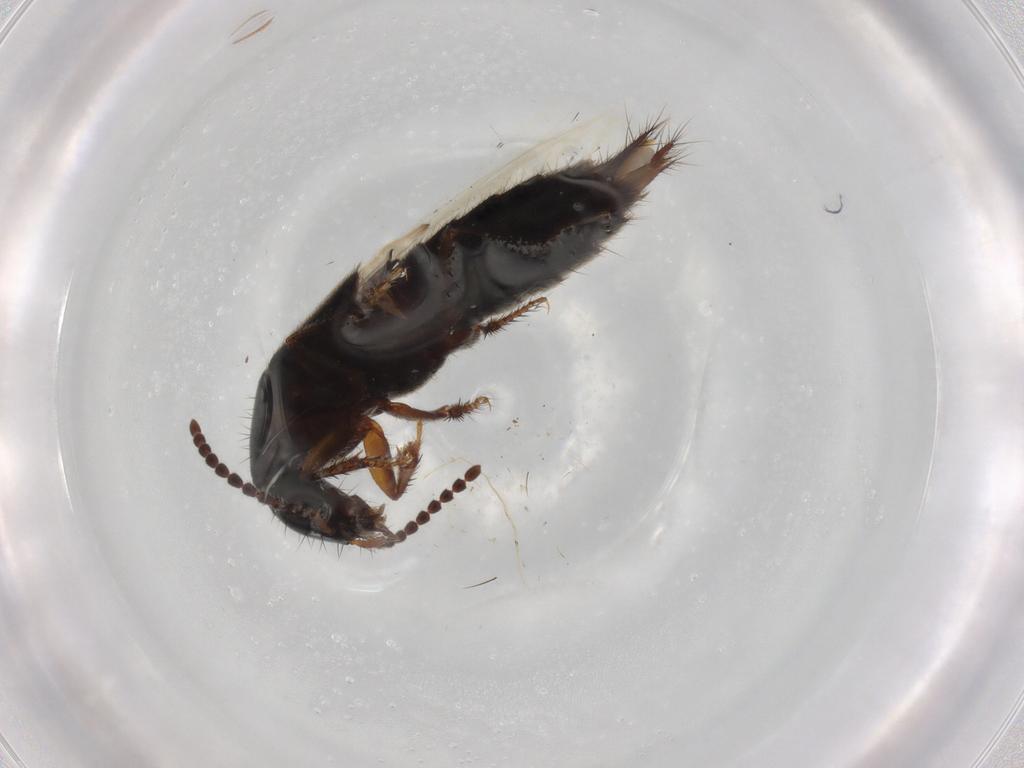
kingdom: Animalia
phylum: Arthropoda
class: Insecta
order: Coleoptera
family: Staphylinidae
